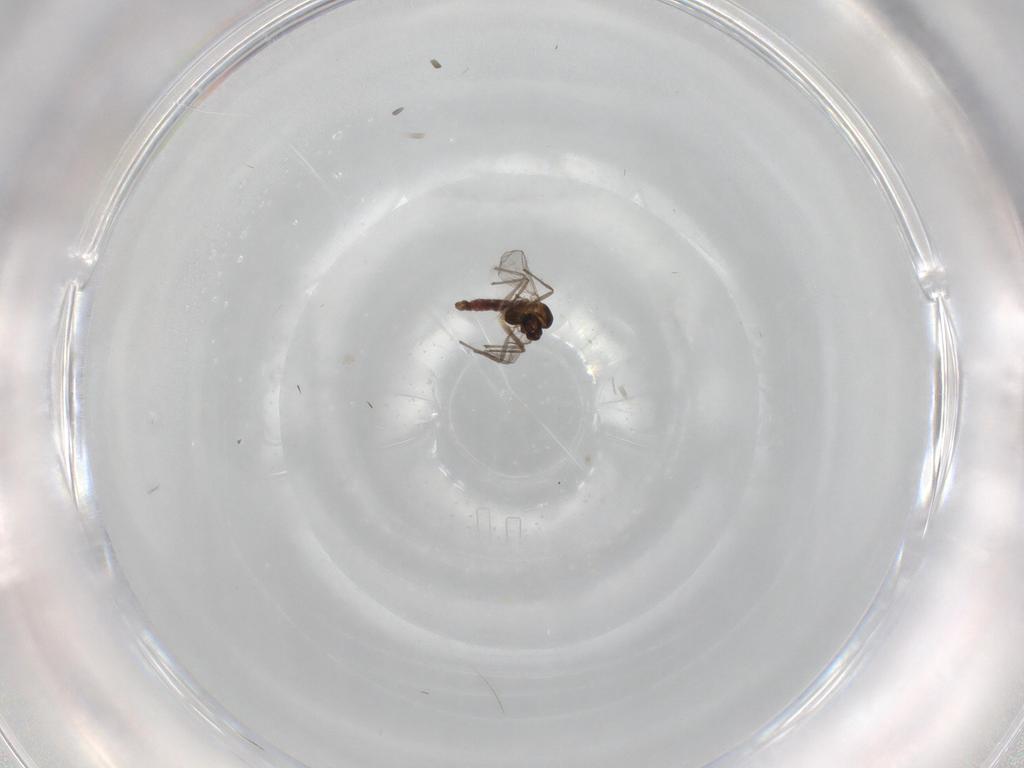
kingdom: Animalia
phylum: Arthropoda
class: Insecta
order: Diptera
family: Chironomidae
